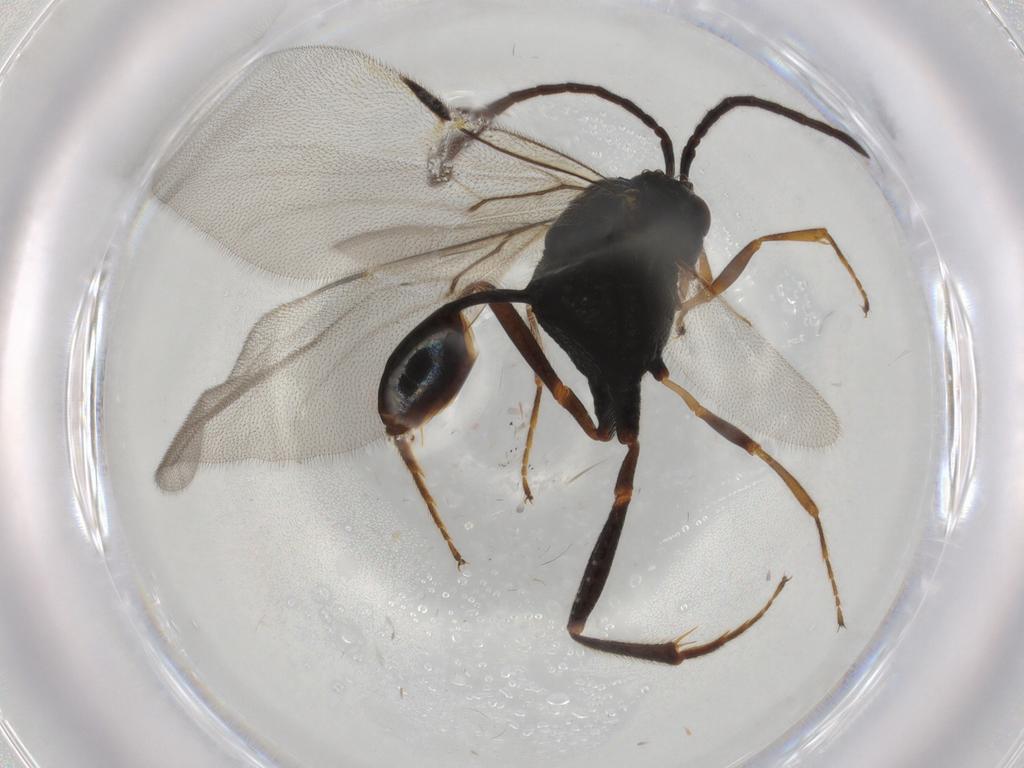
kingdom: Animalia
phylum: Arthropoda
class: Insecta
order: Hymenoptera
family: Evaniidae
